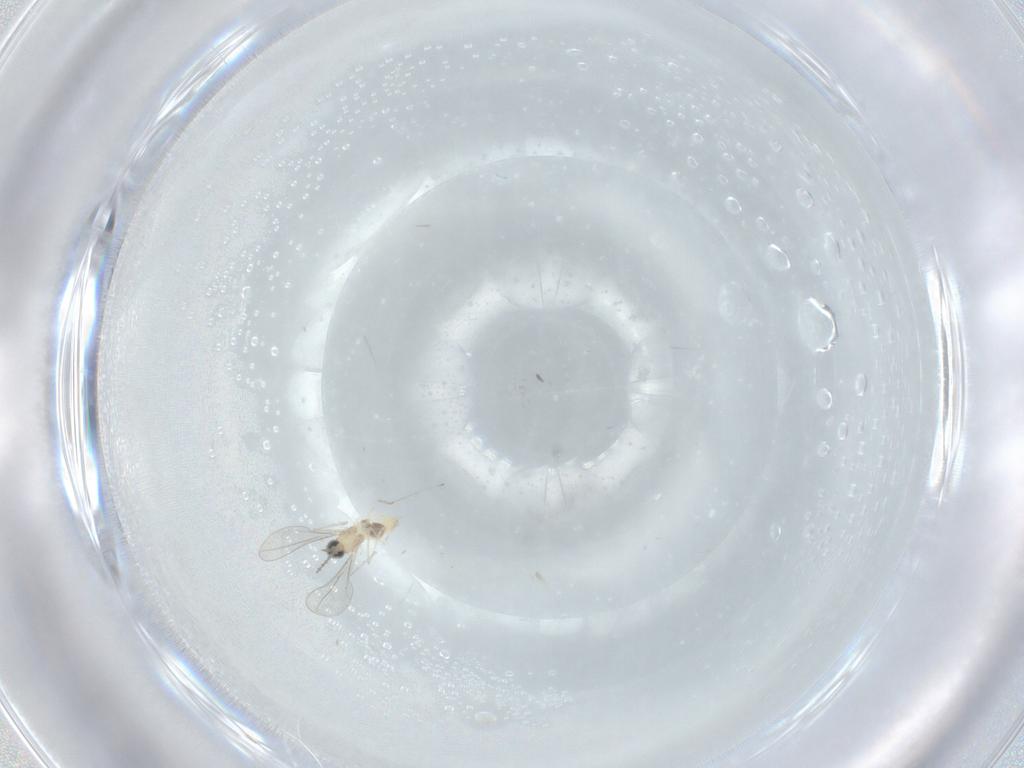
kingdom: Animalia
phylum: Arthropoda
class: Insecta
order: Diptera
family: Cecidomyiidae
